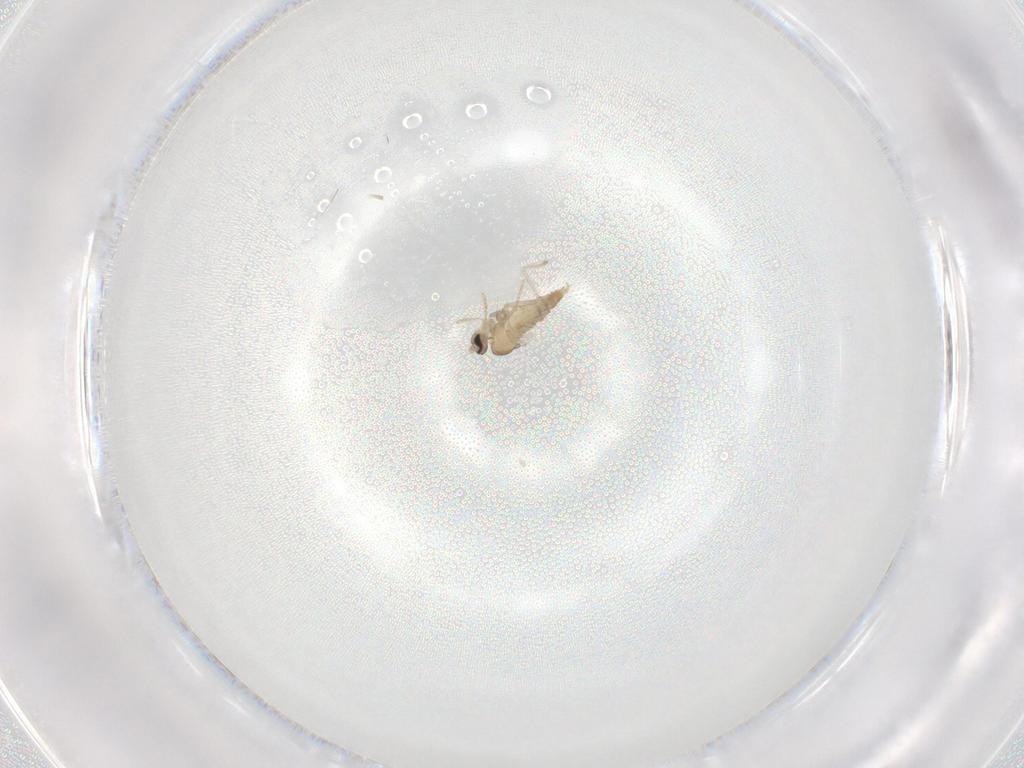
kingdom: Animalia
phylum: Arthropoda
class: Insecta
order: Diptera
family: Cecidomyiidae
